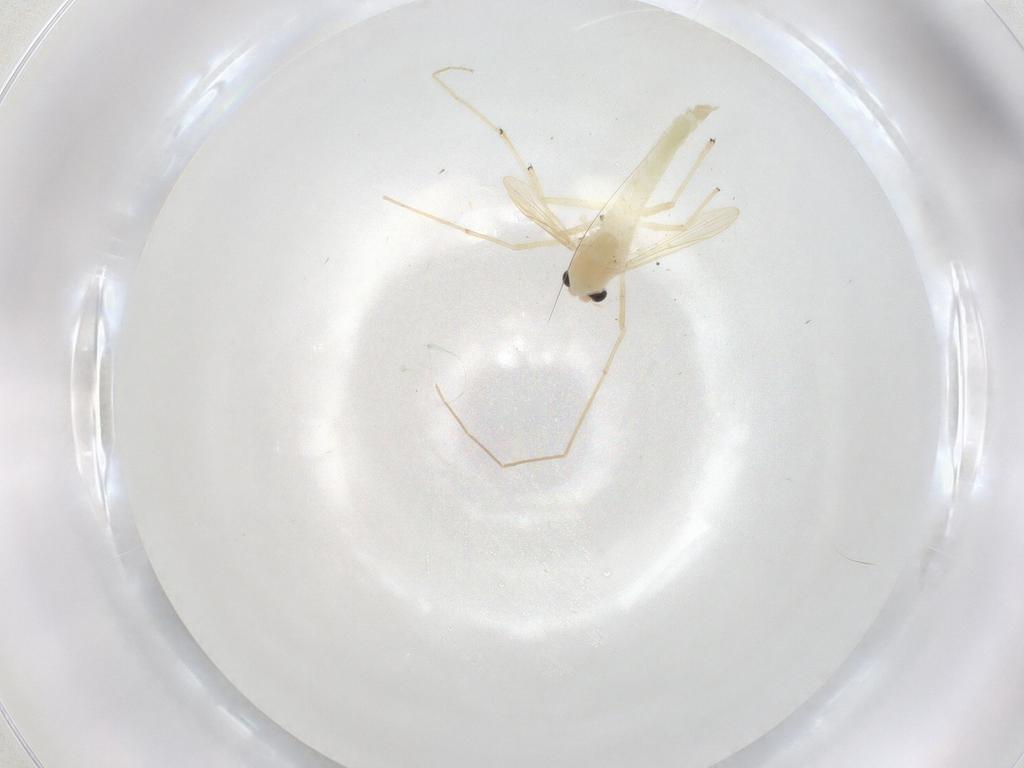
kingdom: Animalia
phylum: Arthropoda
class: Insecta
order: Diptera
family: Chironomidae
